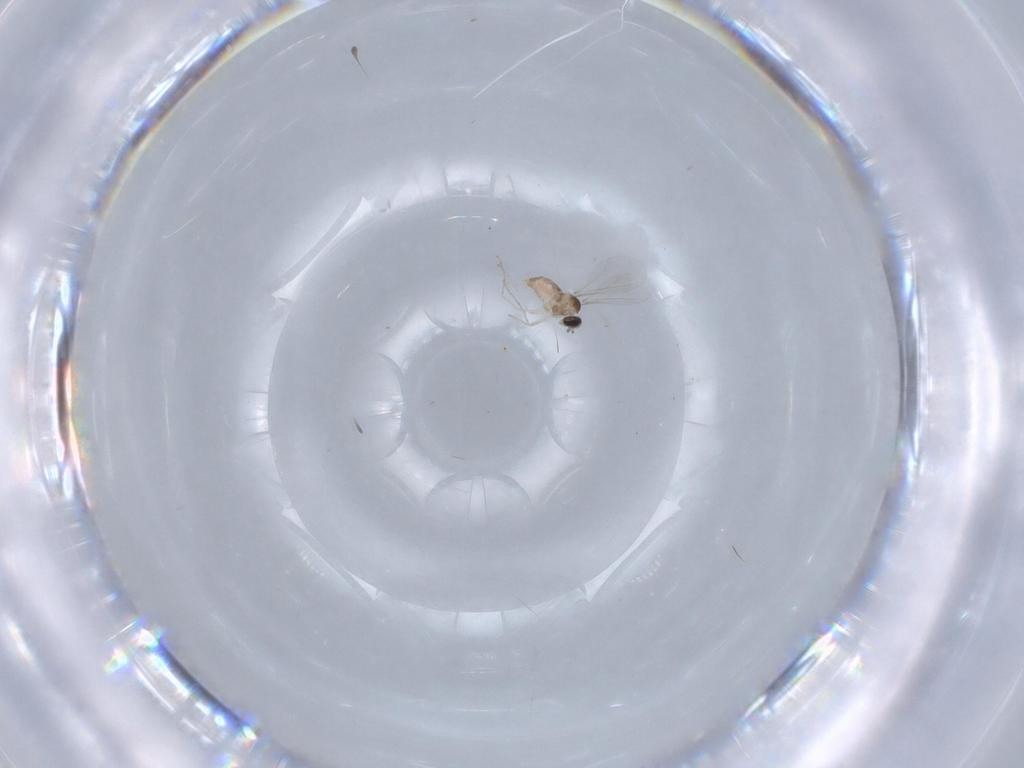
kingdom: Animalia
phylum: Arthropoda
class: Insecta
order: Diptera
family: Cecidomyiidae
